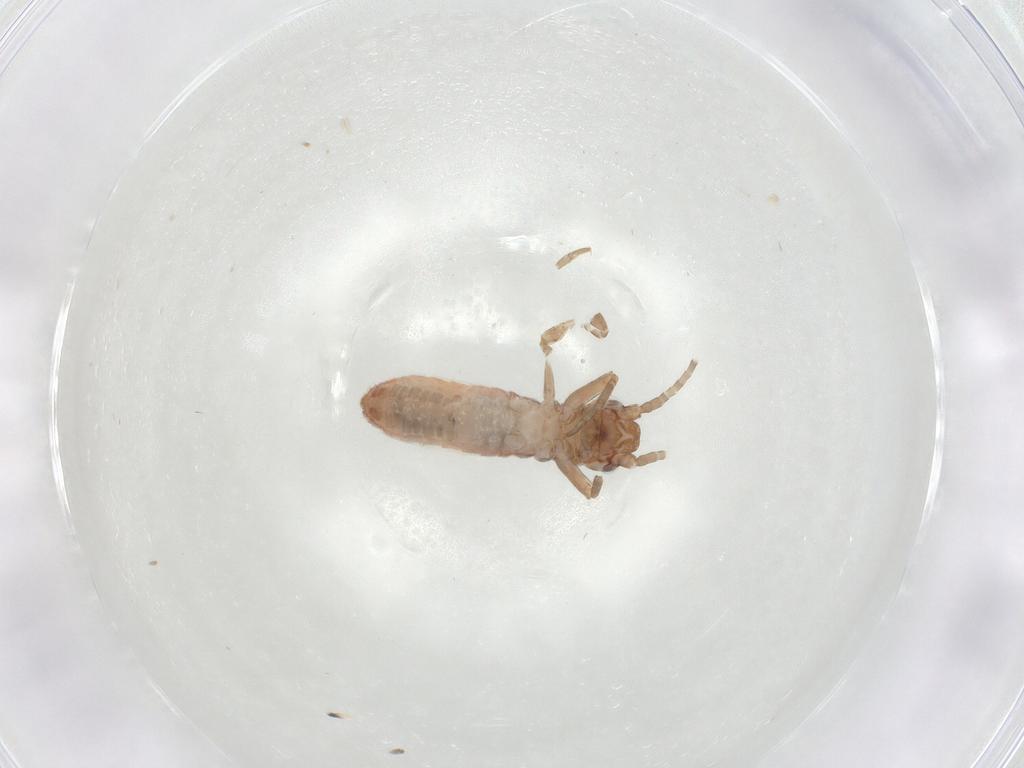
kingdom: Animalia
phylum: Arthropoda
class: Insecta
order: Orthoptera
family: Mogoplistidae
